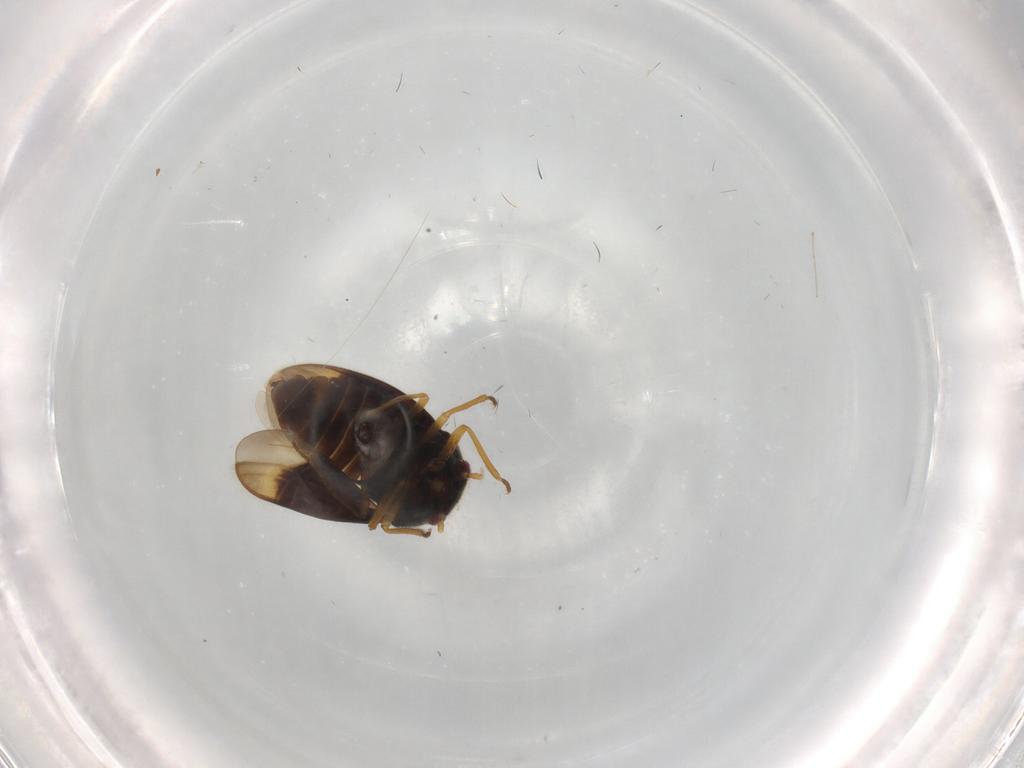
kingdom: Animalia
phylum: Arthropoda
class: Insecta
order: Hemiptera
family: Schizopteridae
